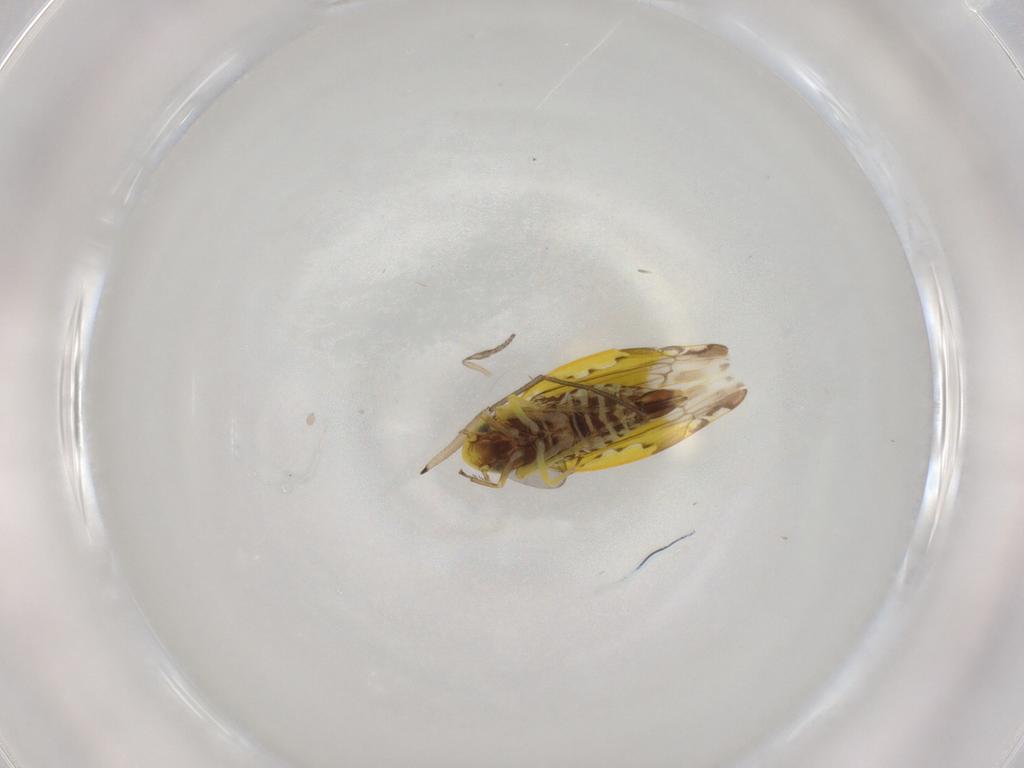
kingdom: Animalia
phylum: Arthropoda
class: Insecta
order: Hemiptera
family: Cicadellidae
